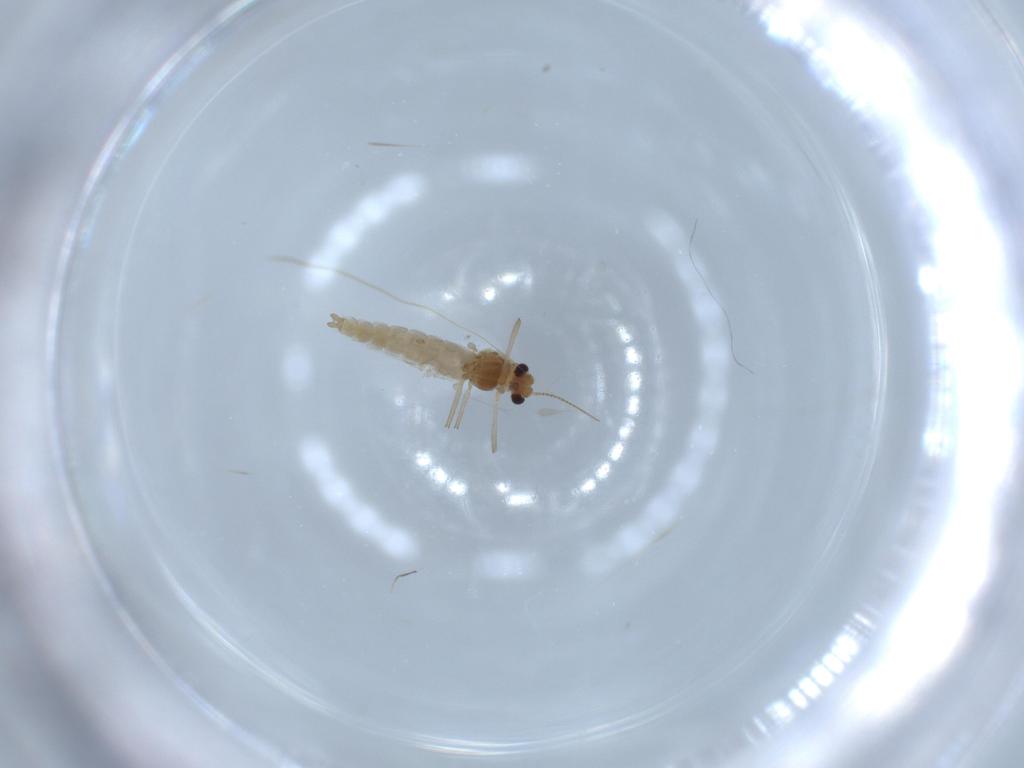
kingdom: Animalia
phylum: Arthropoda
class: Insecta
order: Diptera
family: Chironomidae
